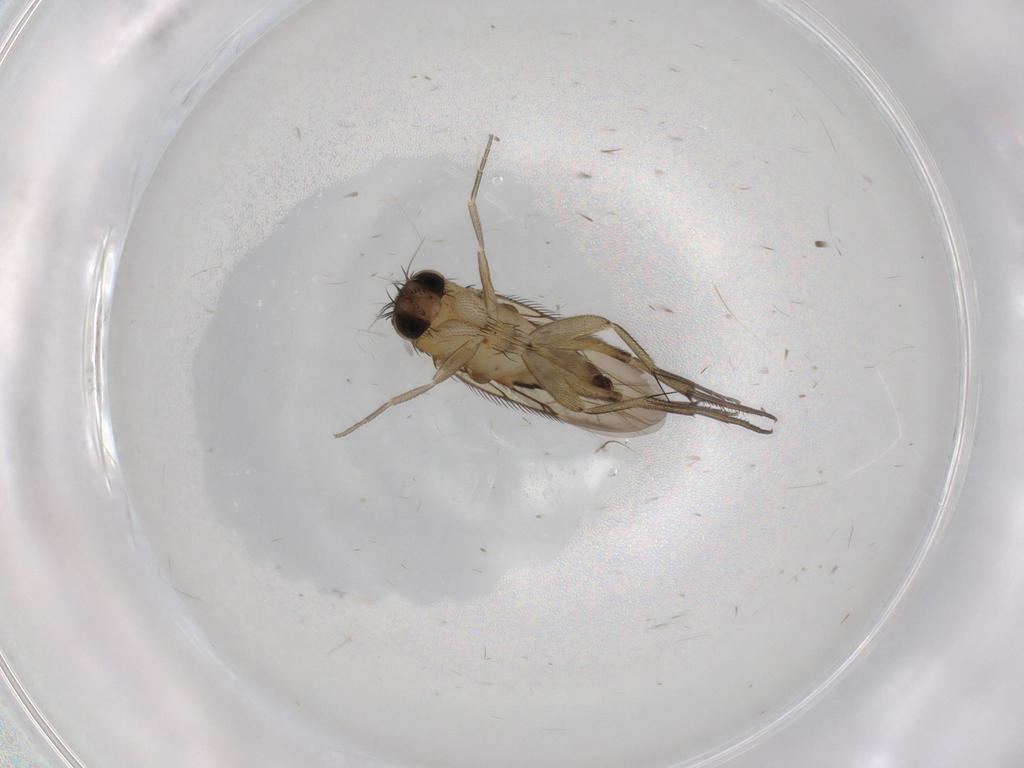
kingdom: Animalia
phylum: Arthropoda
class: Insecta
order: Diptera
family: Phoridae
